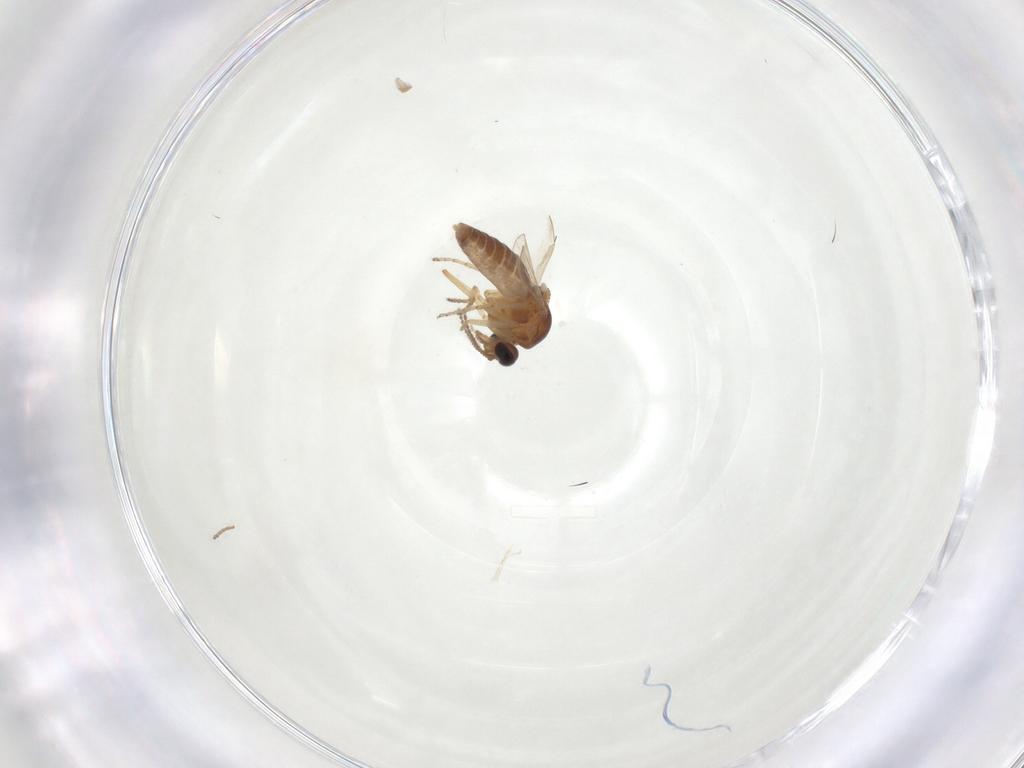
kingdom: Animalia
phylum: Arthropoda
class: Insecta
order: Diptera
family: Ceratopogonidae
